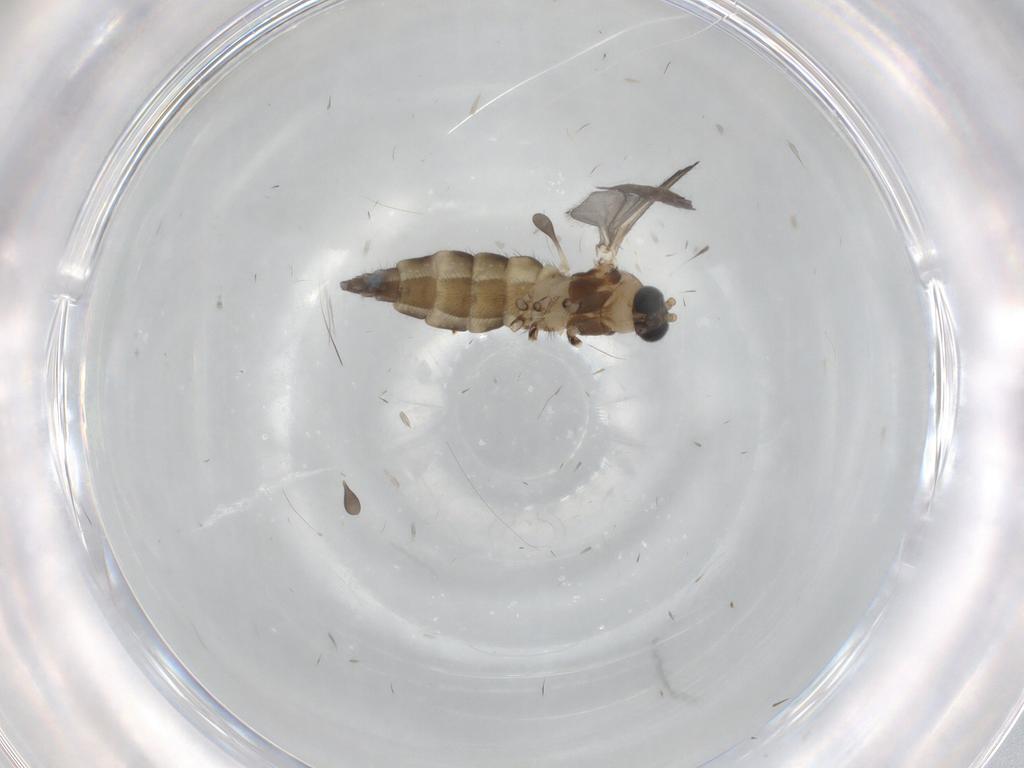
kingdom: Animalia
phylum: Arthropoda
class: Insecta
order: Diptera
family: Sciaridae
